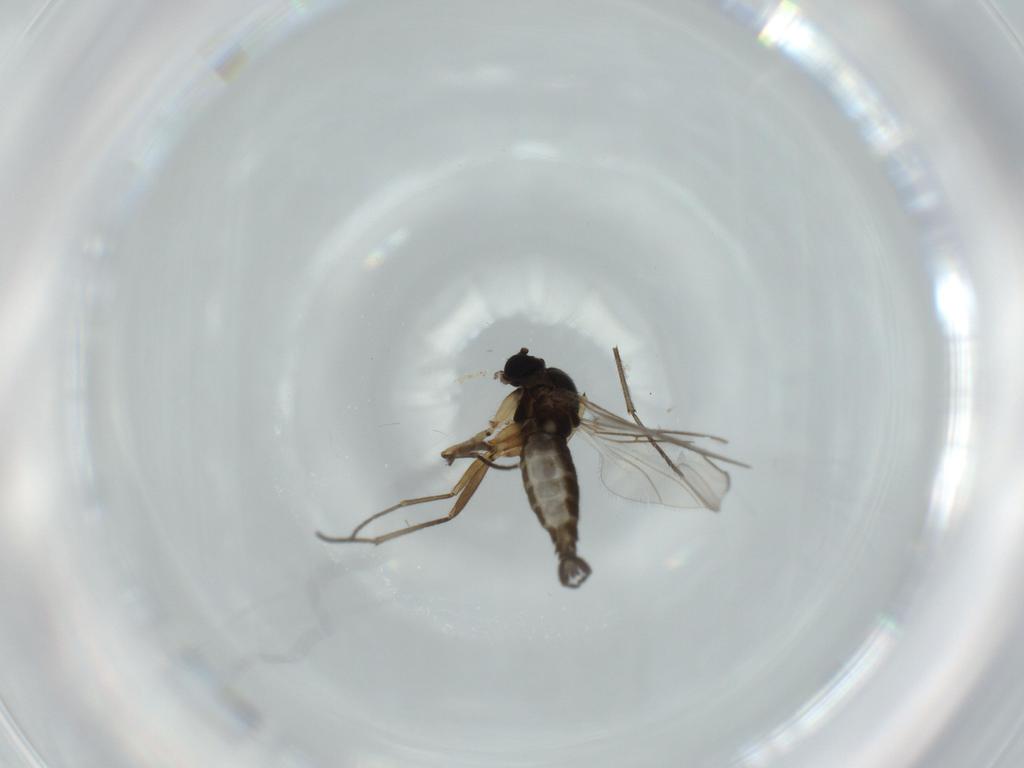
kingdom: Animalia
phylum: Arthropoda
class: Insecta
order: Diptera
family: Sciaridae
